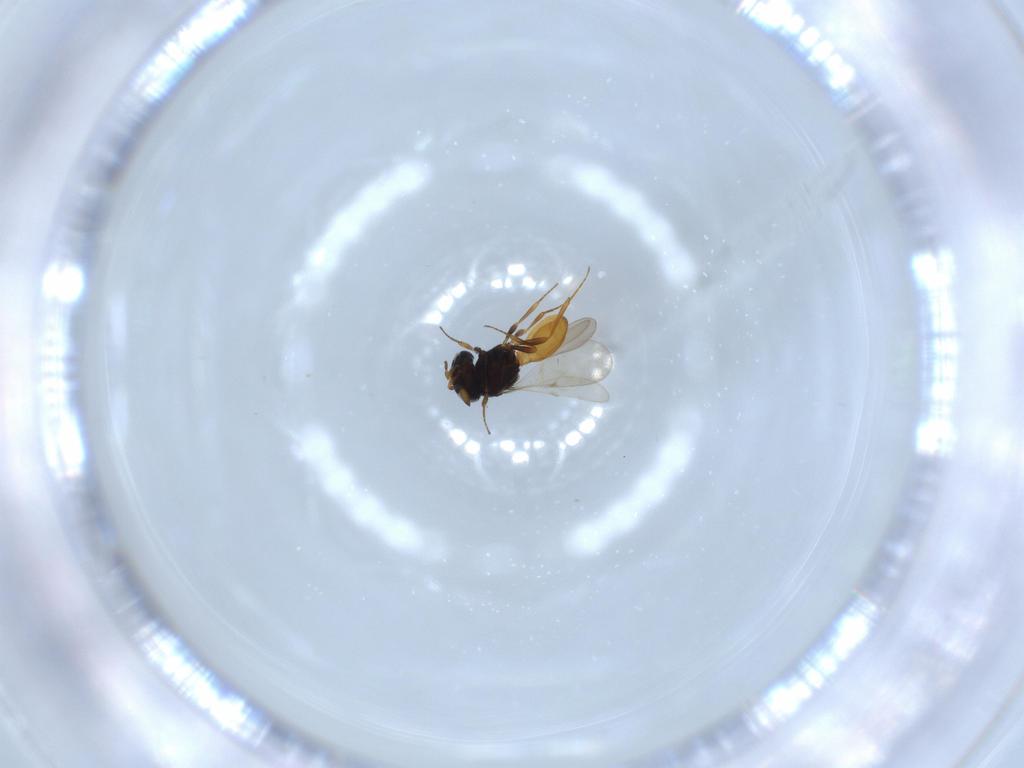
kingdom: Animalia
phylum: Arthropoda
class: Insecta
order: Hymenoptera
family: Scelionidae
